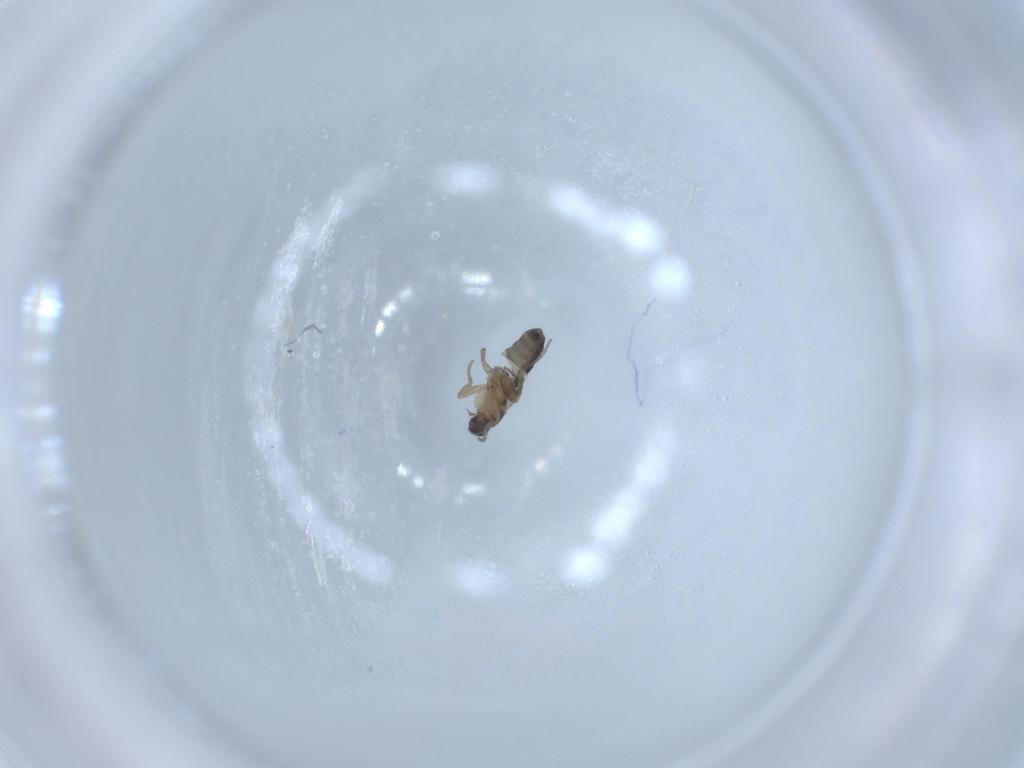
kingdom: Animalia
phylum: Arthropoda
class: Insecta
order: Diptera
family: Phoridae
